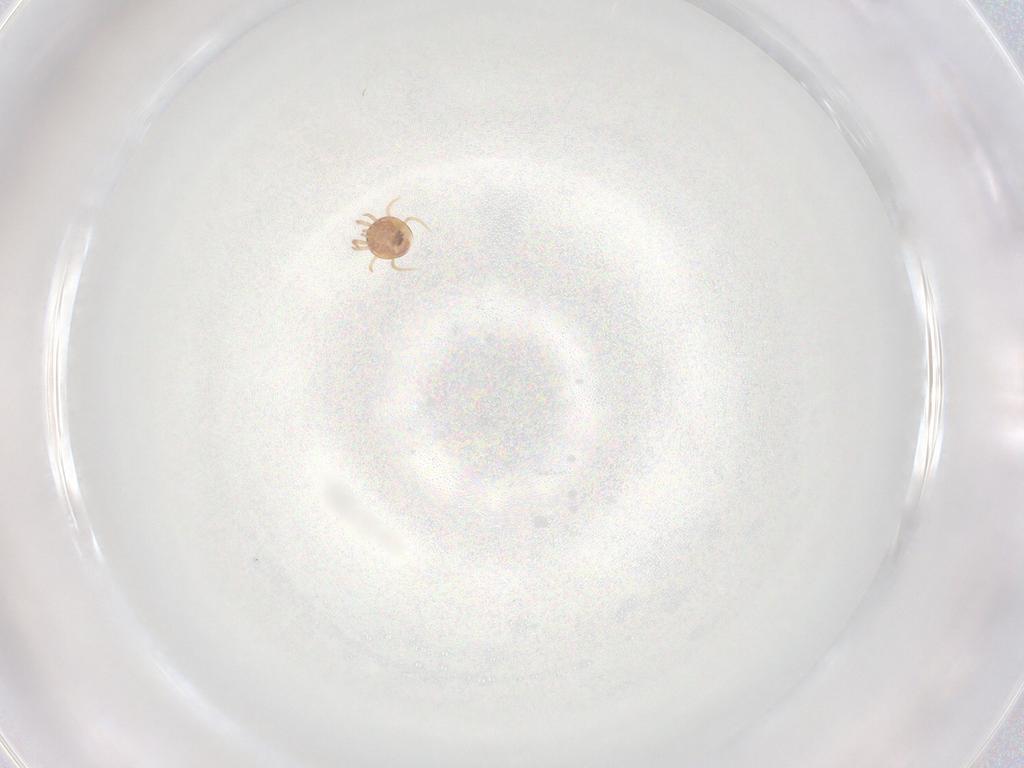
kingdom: Animalia
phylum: Arthropoda
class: Arachnida
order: Mesostigmata
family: Phytoseiidae
